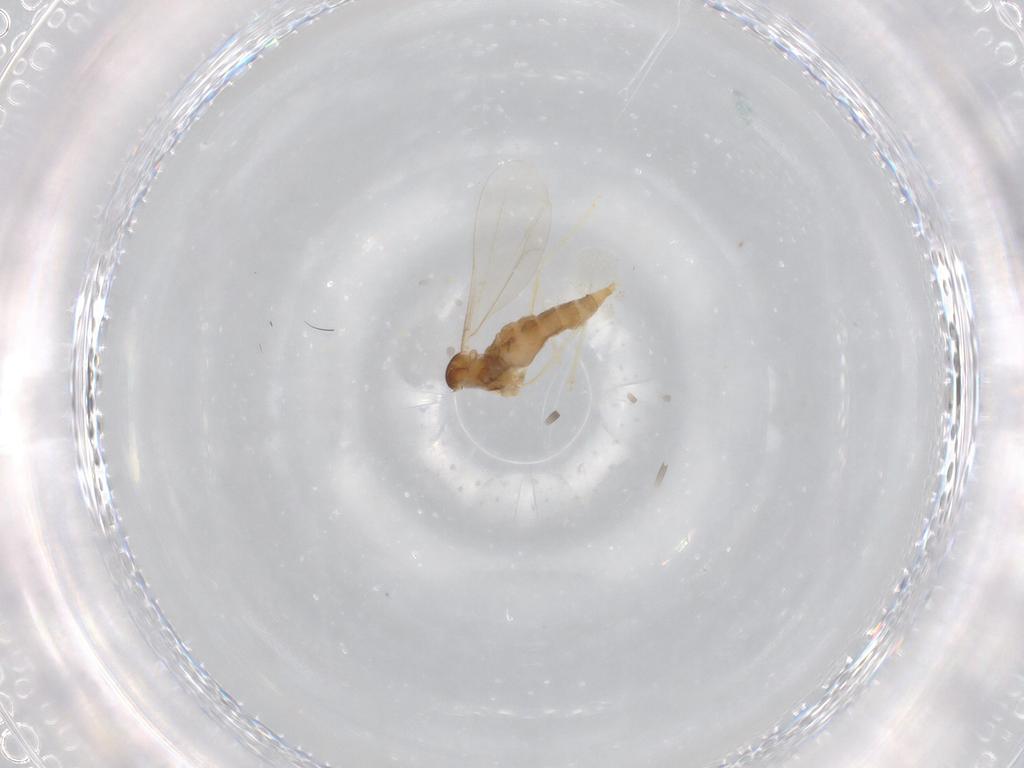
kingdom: Animalia
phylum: Arthropoda
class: Insecta
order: Diptera
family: Cecidomyiidae
